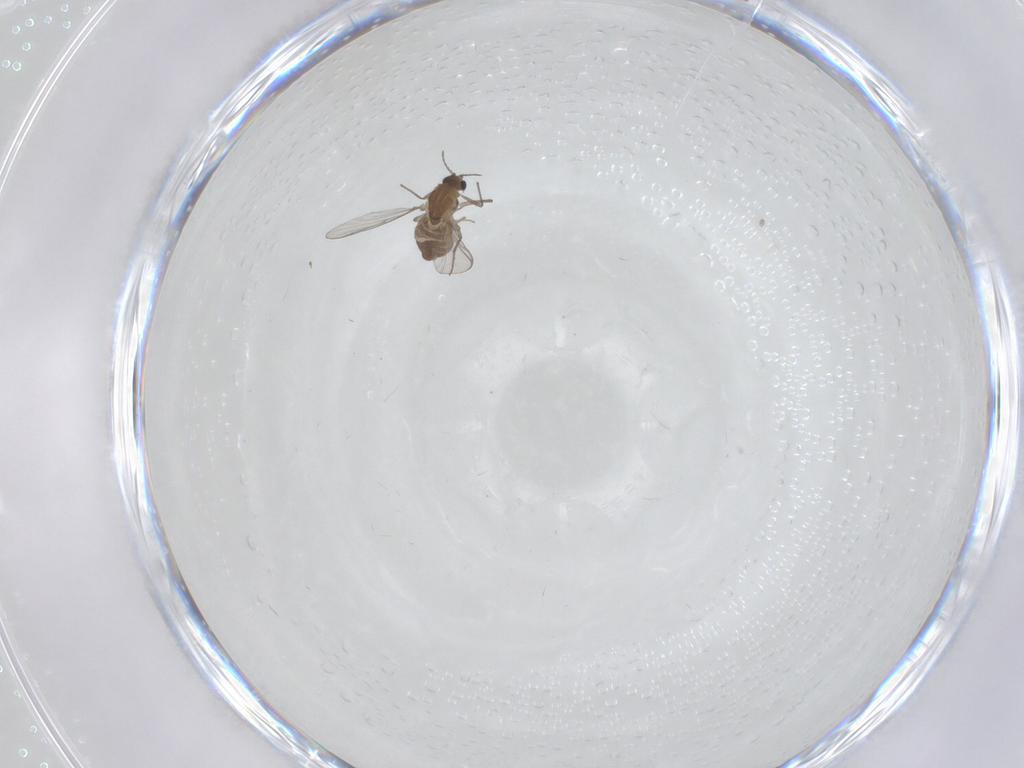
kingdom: Animalia
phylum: Arthropoda
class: Insecta
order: Diptera
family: Chironomidae
